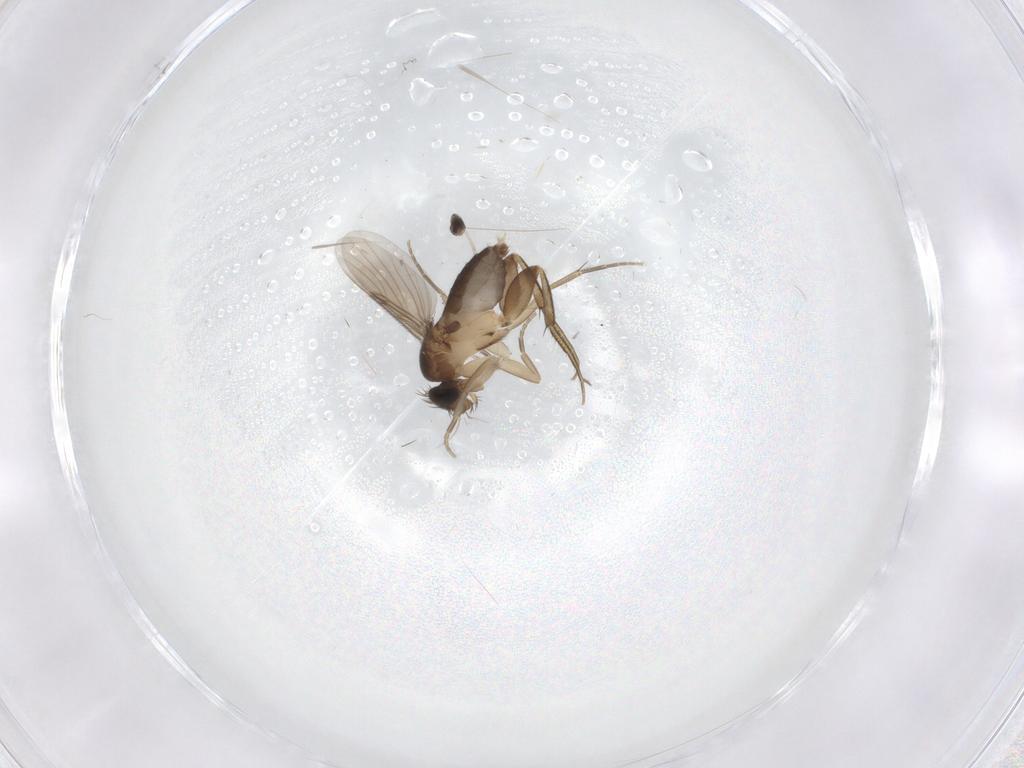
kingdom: Animalia
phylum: Arthropoda
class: Insecta
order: Diptera
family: Phoridae
